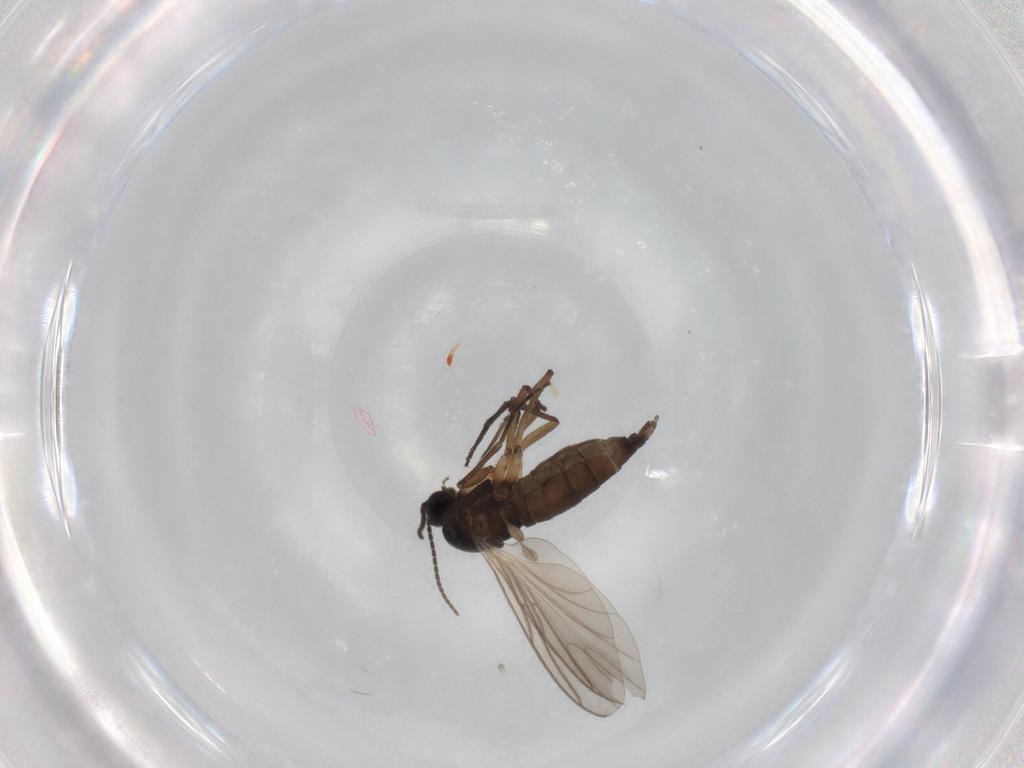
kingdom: Animalia
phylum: Arthropoda
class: Insecta
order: Diptera
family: Sciaridae
